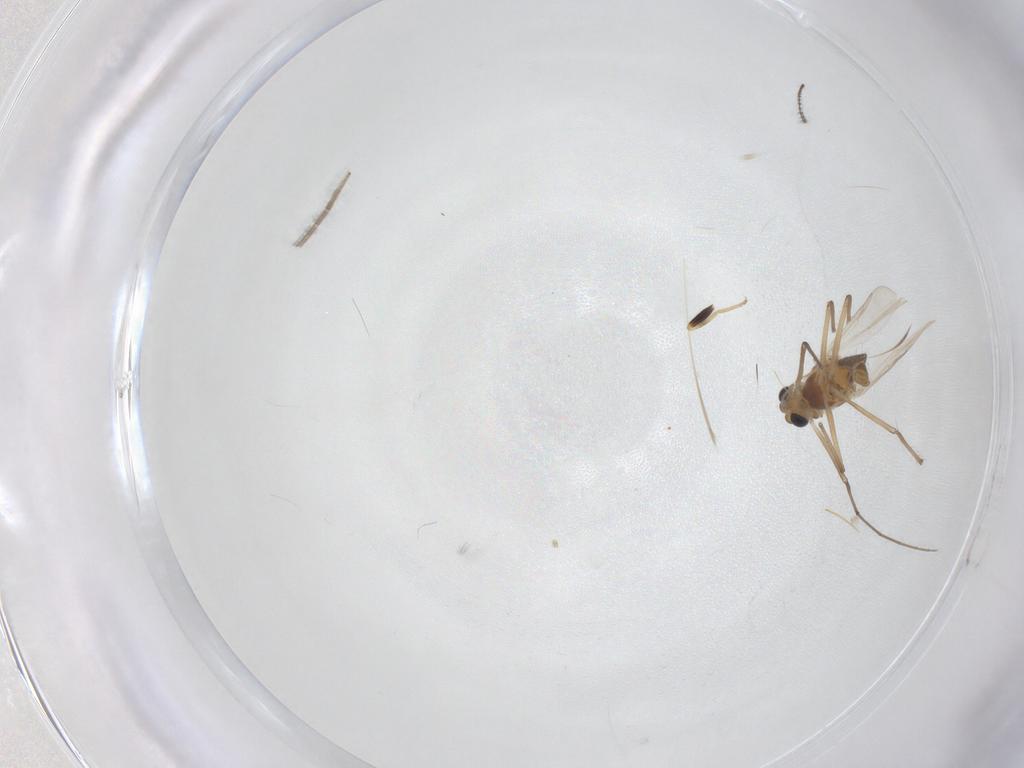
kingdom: Animalia
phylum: Arthropoda
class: Insecta
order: Diptera
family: Chironomidae
